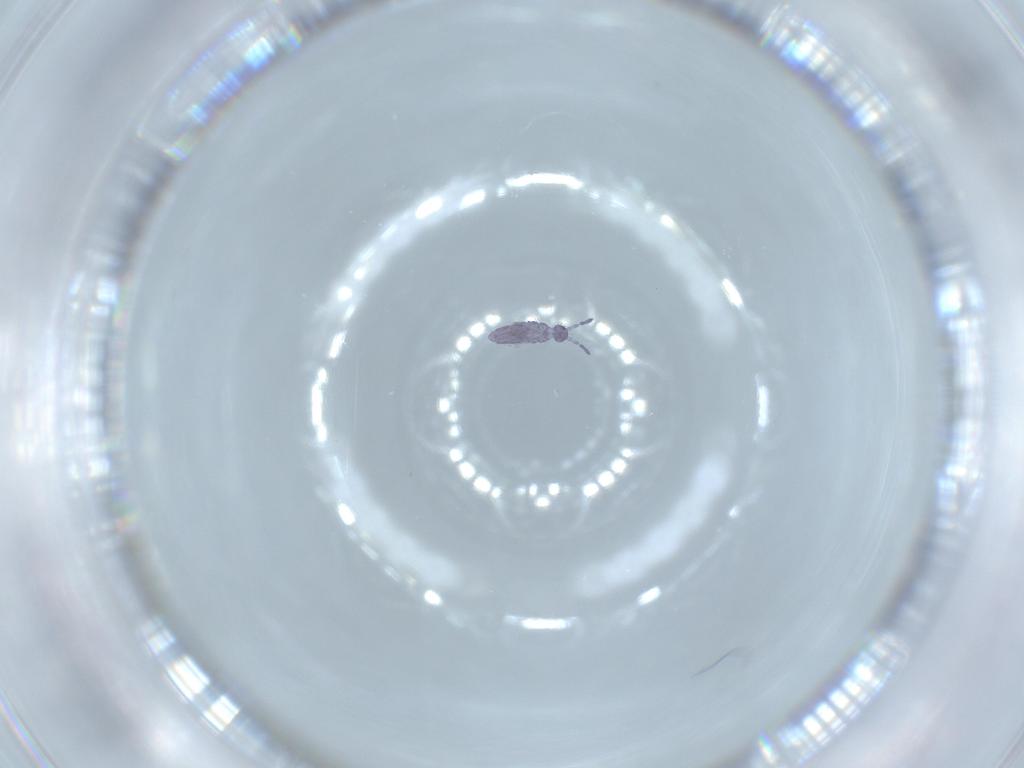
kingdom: Animalia
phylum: Arthropoda
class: Collembola
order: Entomobryomorpha
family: Entomobryidae
